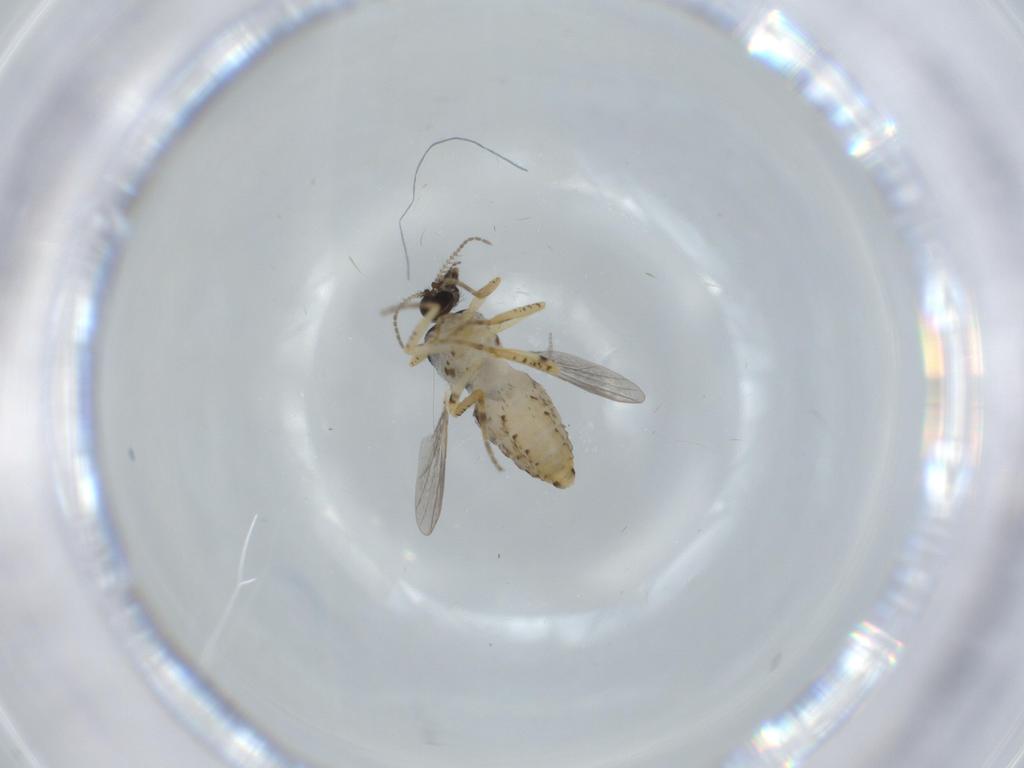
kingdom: Animalia
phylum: Arthropoda
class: Insecta
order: Diptera
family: Ceratopogonidae
